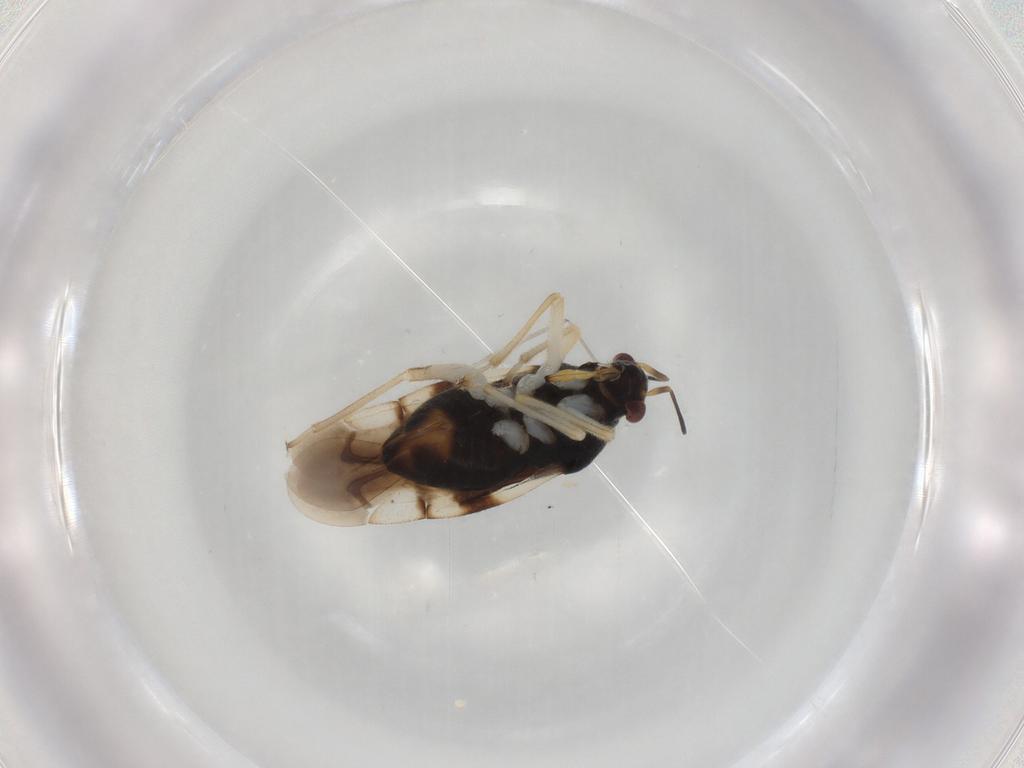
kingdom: Animalia
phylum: Arthropoda
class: Insecta
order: Hemiptera
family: Miridae
